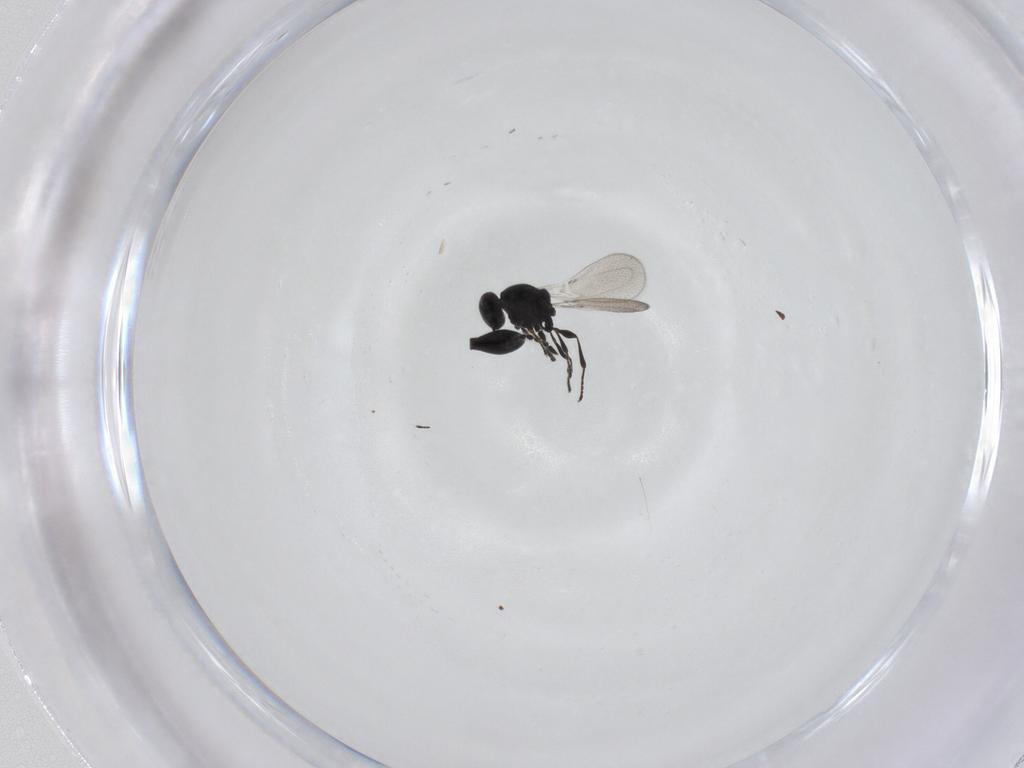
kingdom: Animalia
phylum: Arthropoda
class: Insecta
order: Hymenoptera
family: Platygastridae
